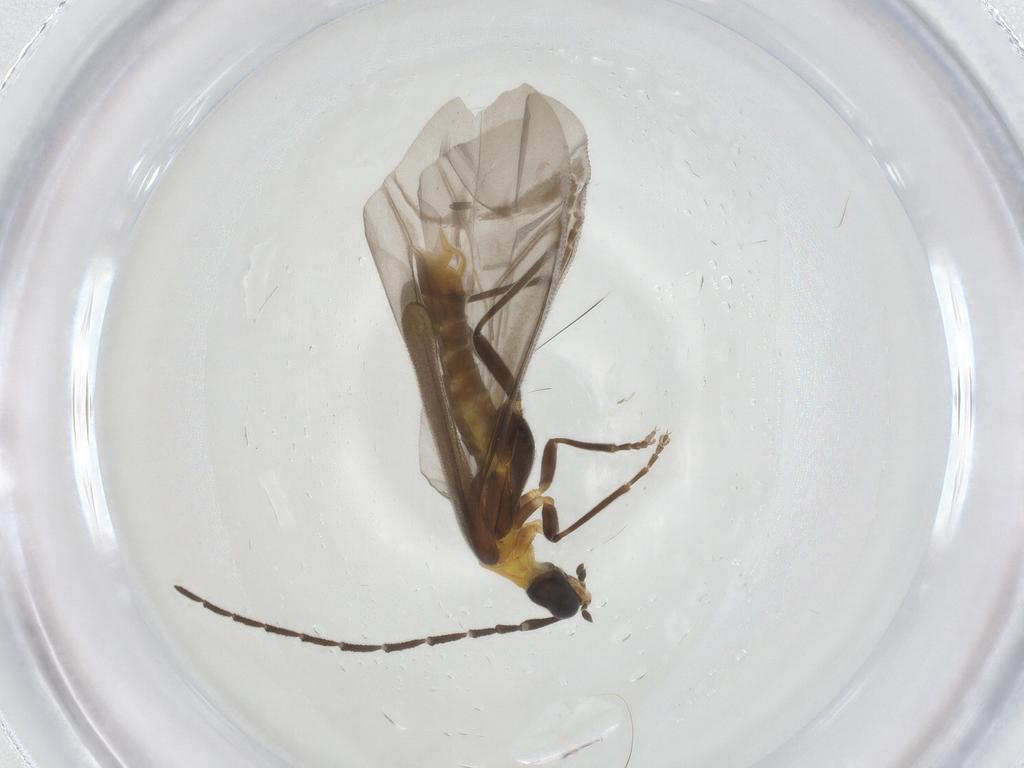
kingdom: Animalia
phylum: Arthropoda
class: Insecta
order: Coleoptera
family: Cantharidae
